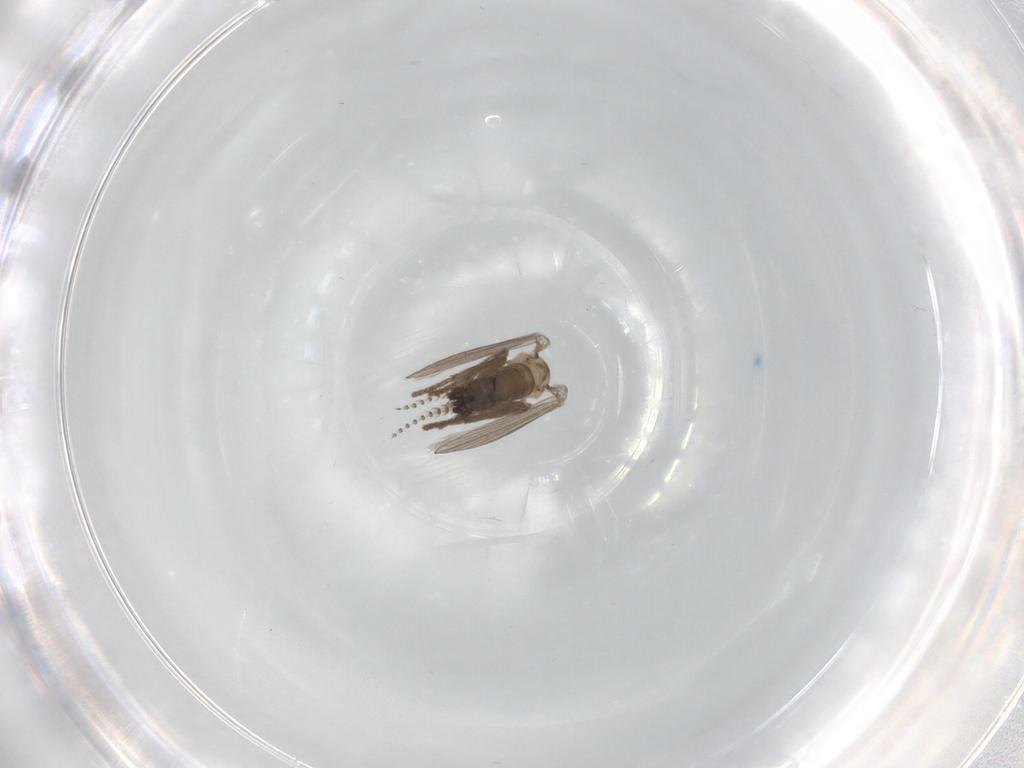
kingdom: Animalia
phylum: Arthropoda
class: Insecta
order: Diptera
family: Psychodidae
